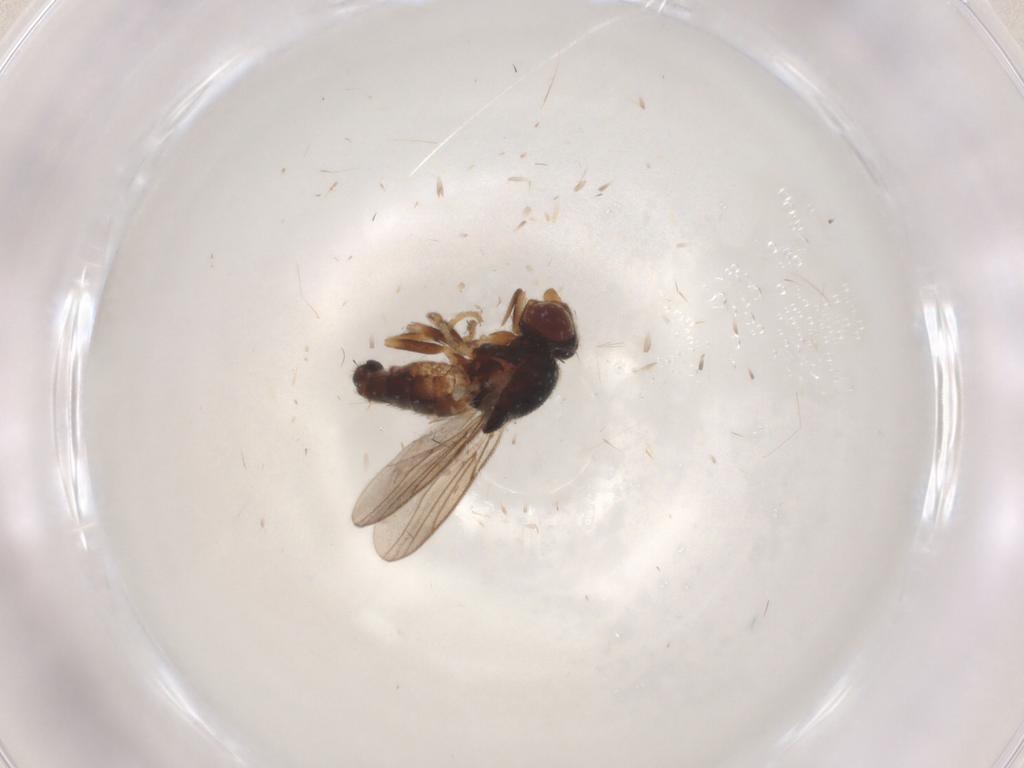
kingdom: Animalia
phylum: Arthropoda
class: Insecta
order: Diptera
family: Chloropidae
